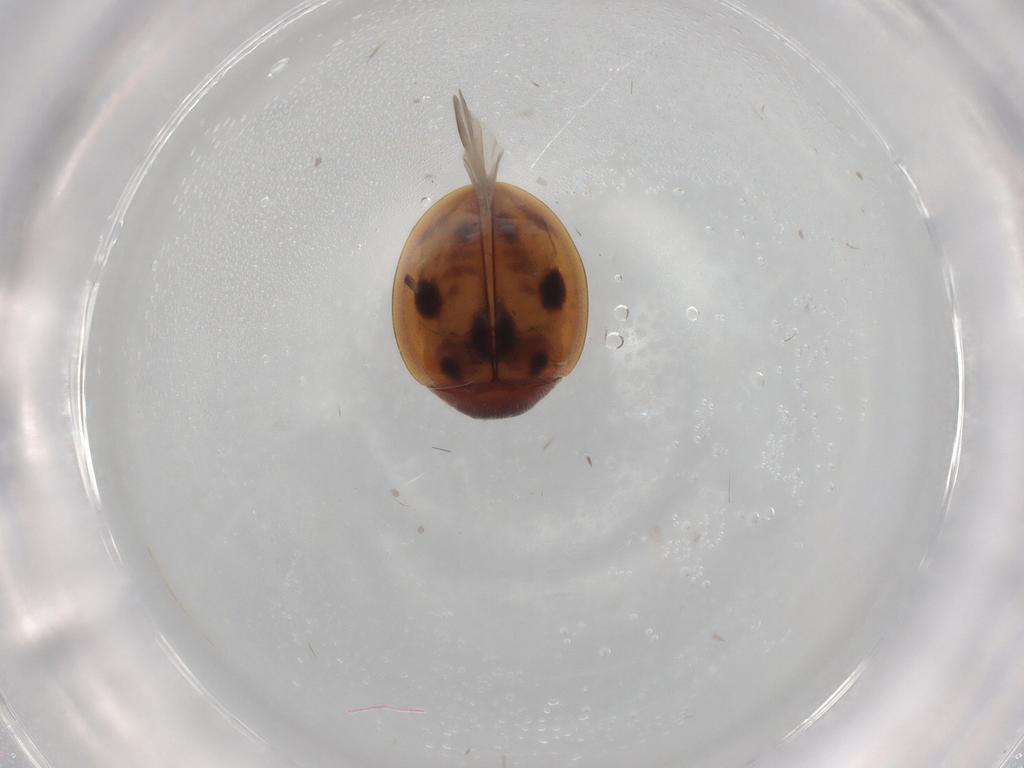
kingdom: Animalia
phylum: Arthropoda
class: Insecta
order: Coleoptera
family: Coccinellidae
